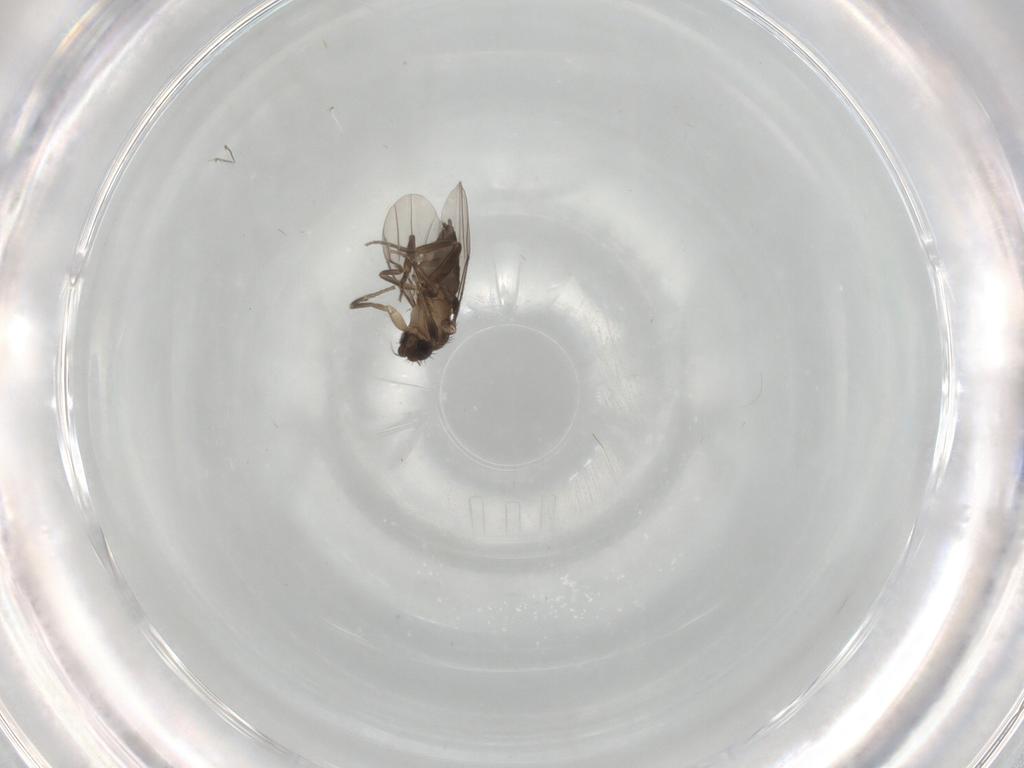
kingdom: Animalia
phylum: Arthropoda
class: Insecta
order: Diptera
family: Phoridae
